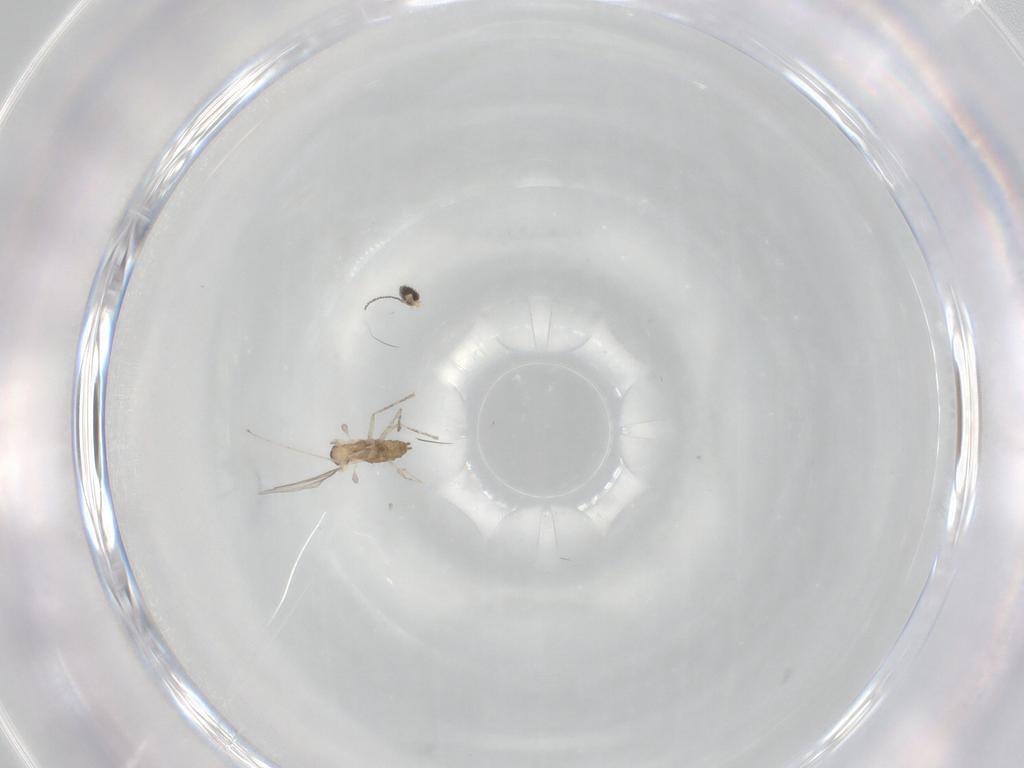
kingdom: Animalia
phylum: Arthropoda
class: Insecta
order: Diptera
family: Cecidomyiidae
